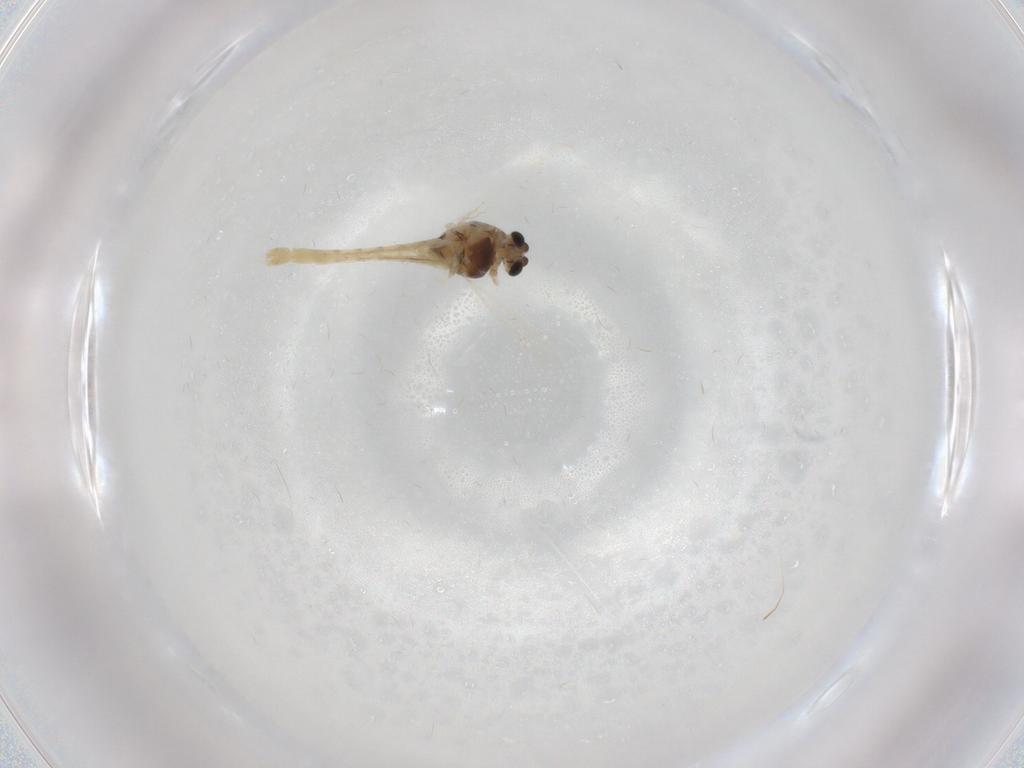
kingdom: Animalia
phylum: Arthropoda
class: Insecta
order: Diptera
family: Chironomidae
